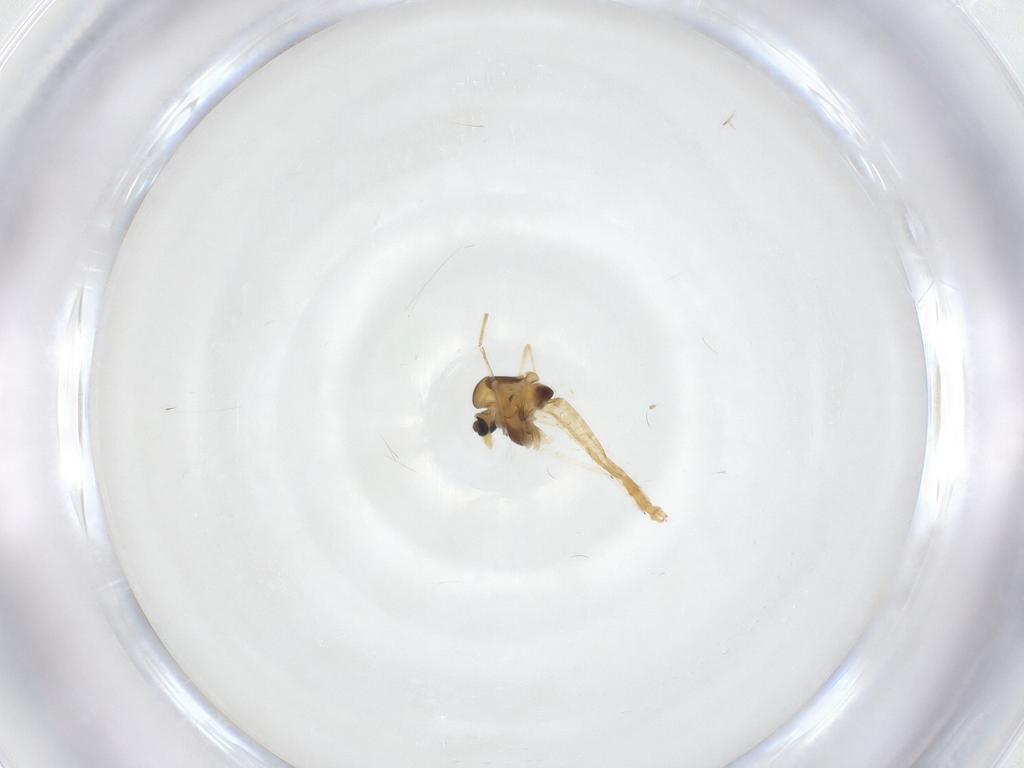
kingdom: Animalia
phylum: Arthropoda
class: Insecta
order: Diptera
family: Chironomidae
